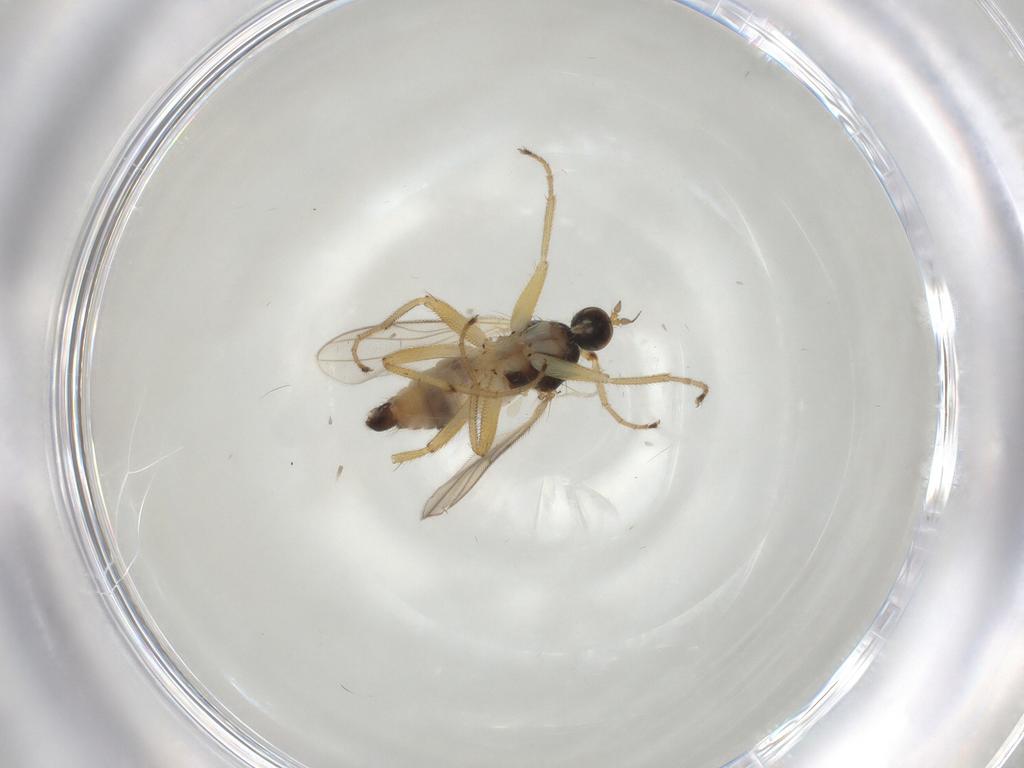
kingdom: Animalia
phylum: Arthropoda
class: Insecta
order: Diptera
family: Hybotidae
